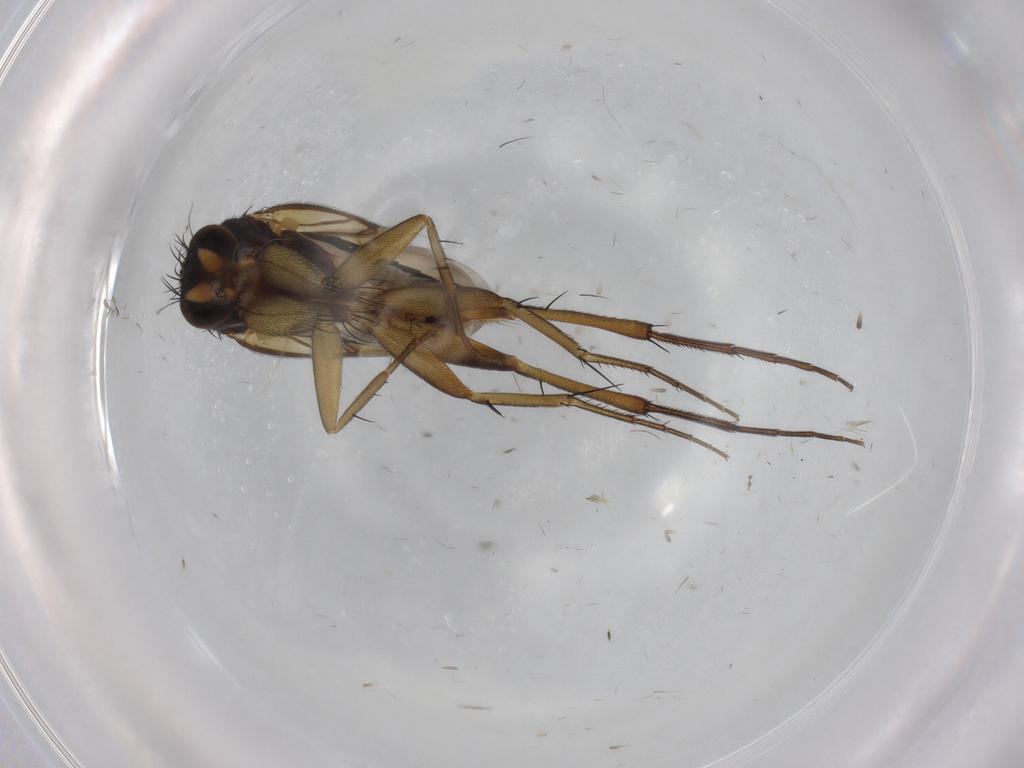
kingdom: Animalia
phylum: Arthropoda
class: Insecta
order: Diptera
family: Phoridae
